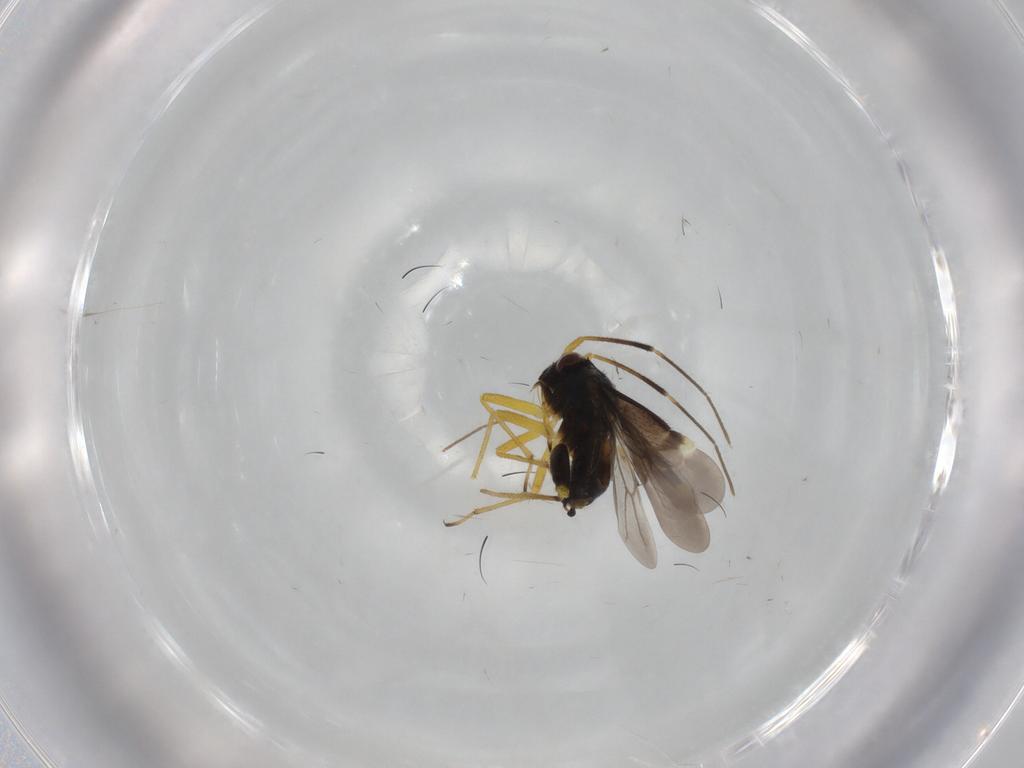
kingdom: Animalia
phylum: Arthropoda
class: Insecta
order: Hemiptera
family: Miridae
